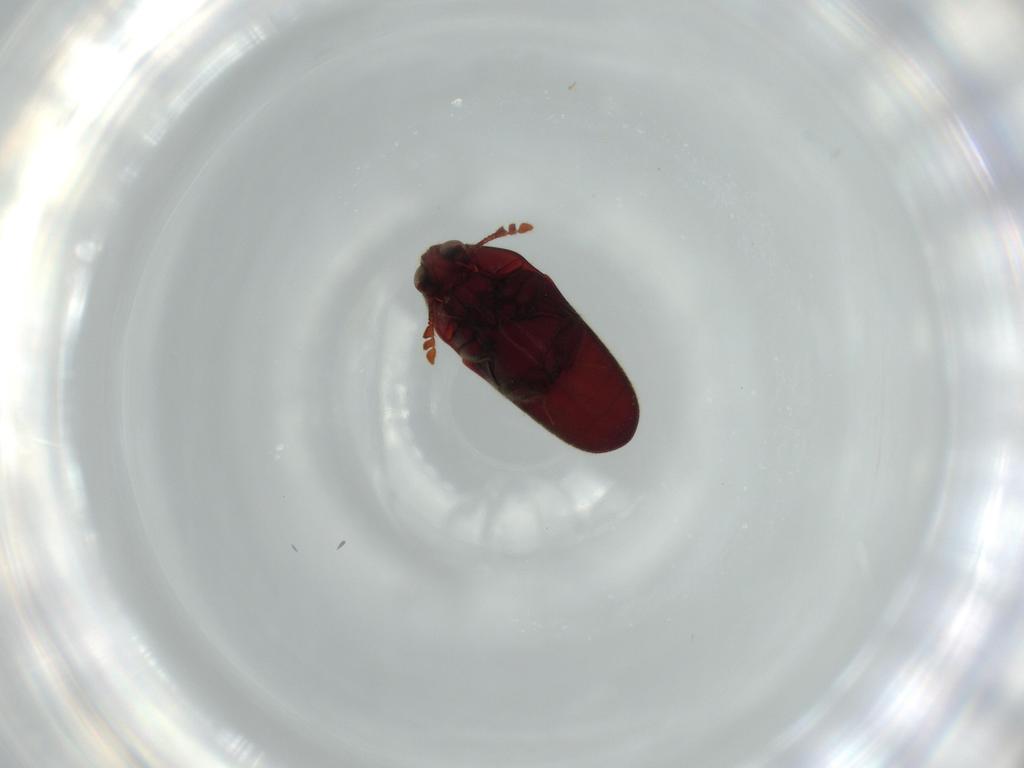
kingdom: Animalia
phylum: Arthropoda
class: Insecta
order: Coleoptera
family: Throscidae
